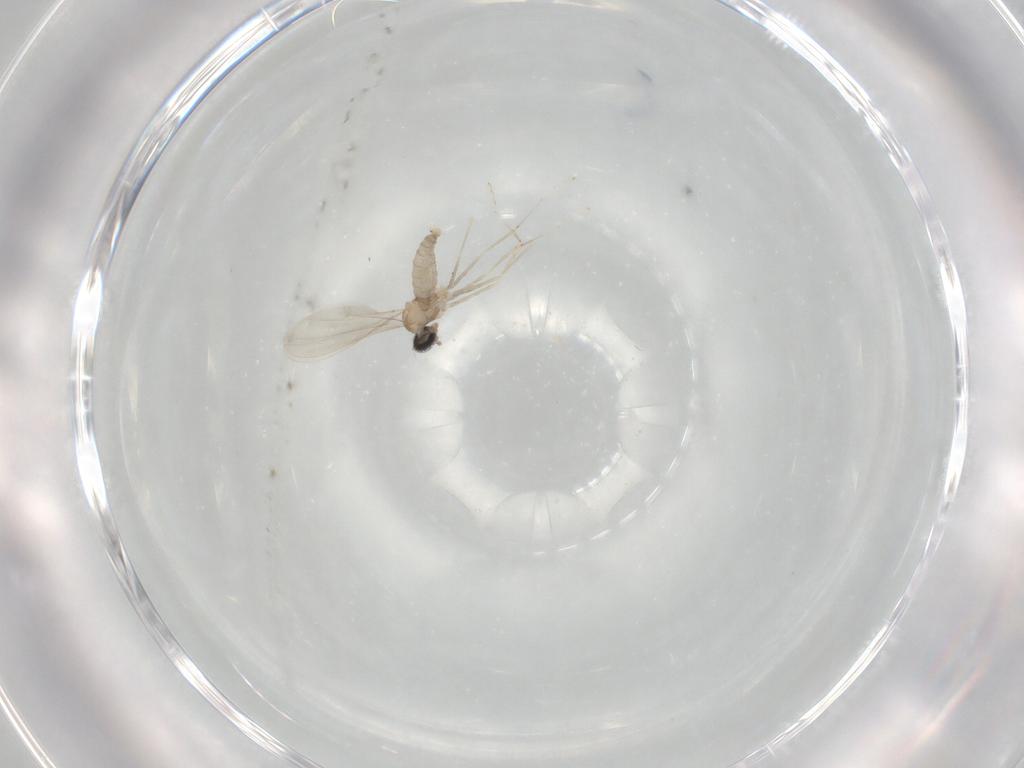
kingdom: Animalia
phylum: Arthropoda
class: Insecta
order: Diptera
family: Cecidomyiidae
